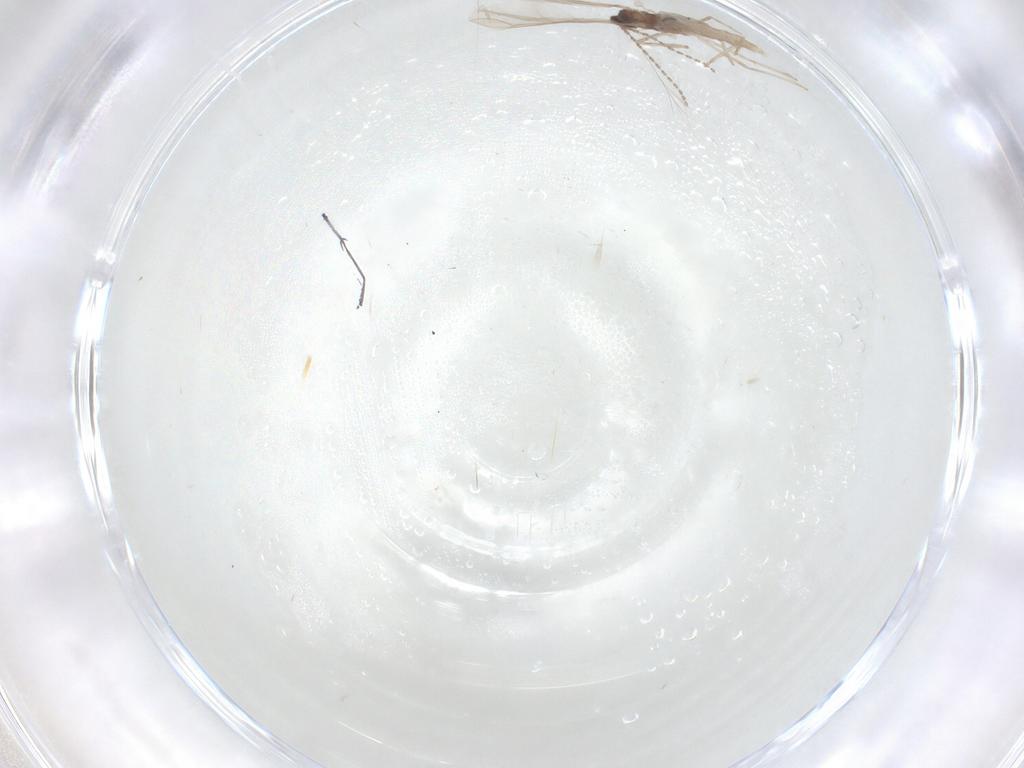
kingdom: Animalia
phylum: Arthropoda
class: Insecta
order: Diptera
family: Cecidomyiidae
